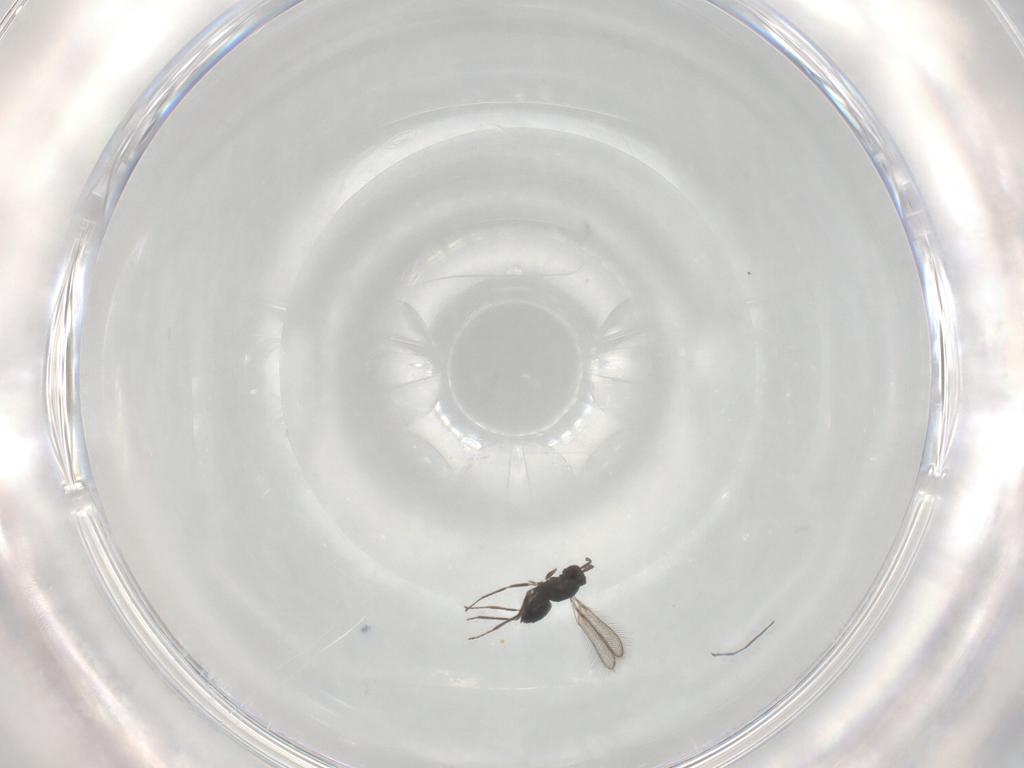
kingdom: Animalia
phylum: Arthropoda
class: Insecta
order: Hymenoptera
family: Mymaridae
